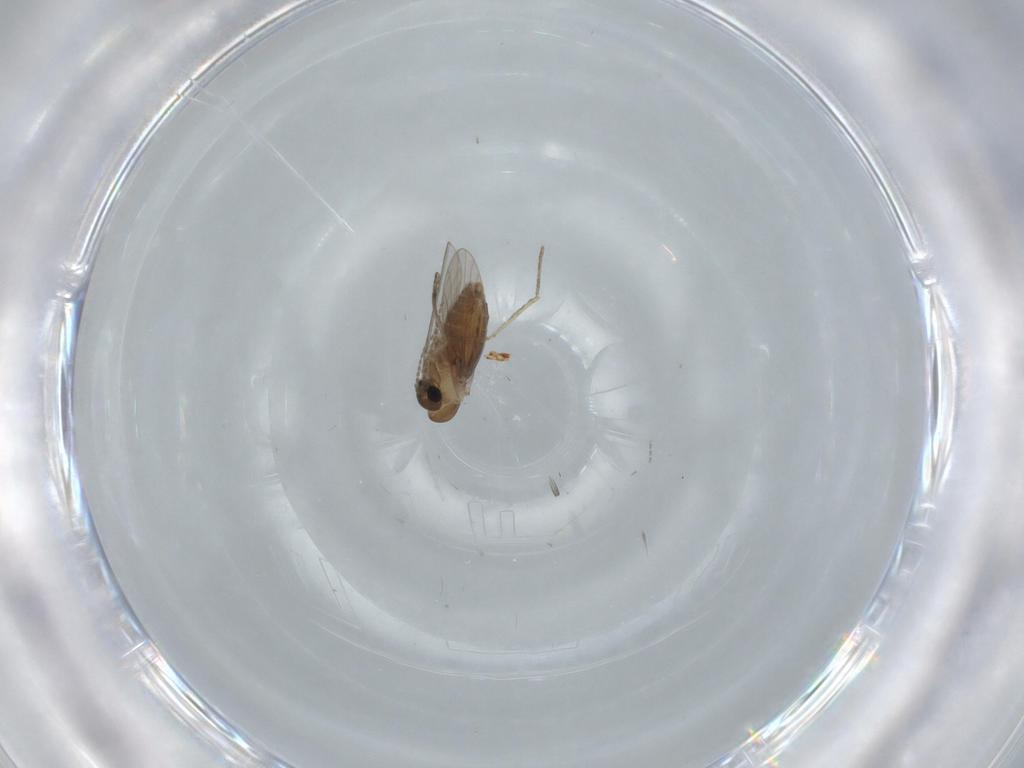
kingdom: Animalia
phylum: Arthropoda
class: Insecta
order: Diptera
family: Cecidomyiidae
